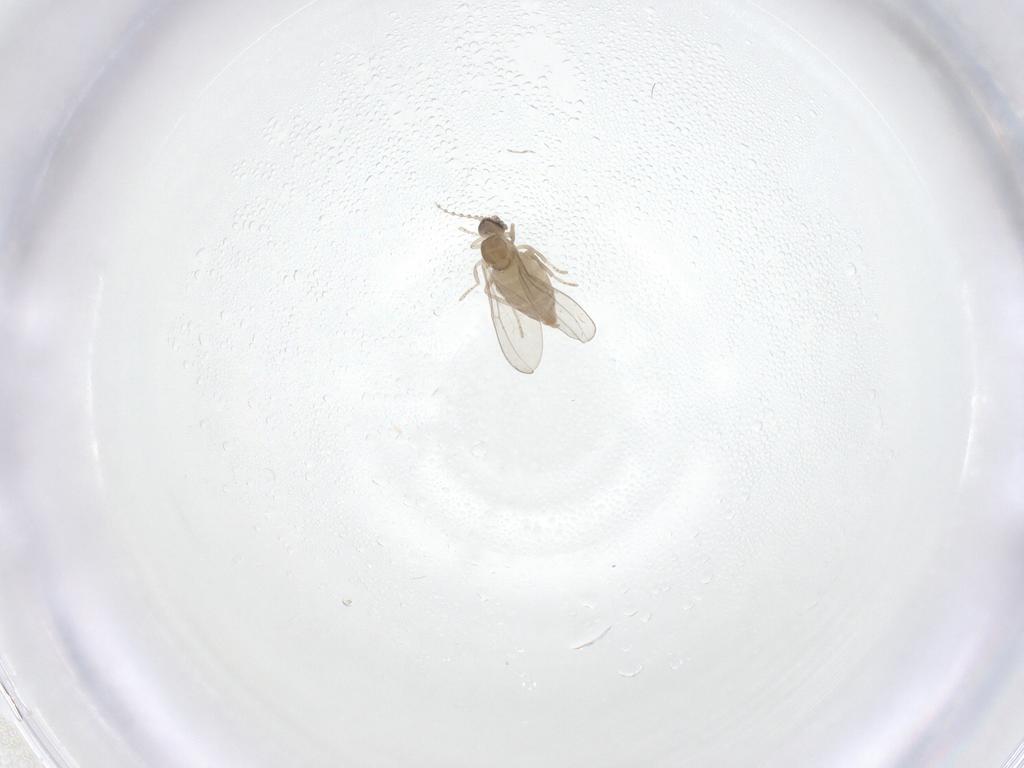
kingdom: Animalia
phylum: Arthropoda
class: Insecta
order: Diptera
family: Cecidomyiidae
